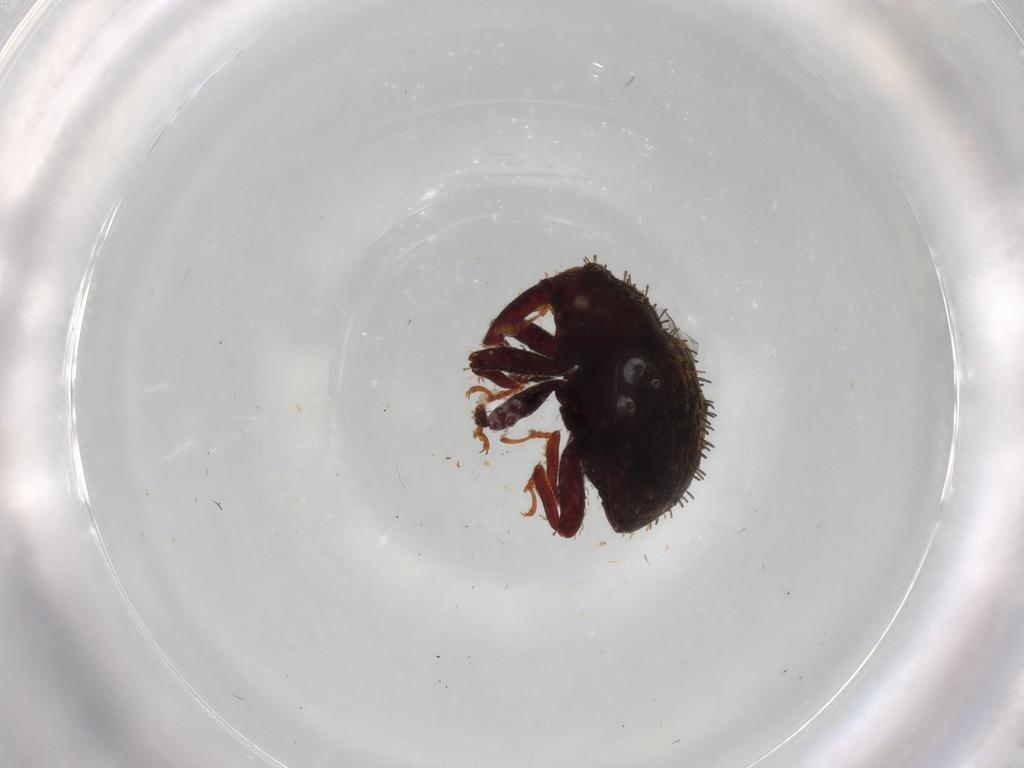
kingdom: Animalia
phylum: Arthropoda
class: Insecta
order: Coleoptera
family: Curculionidae
